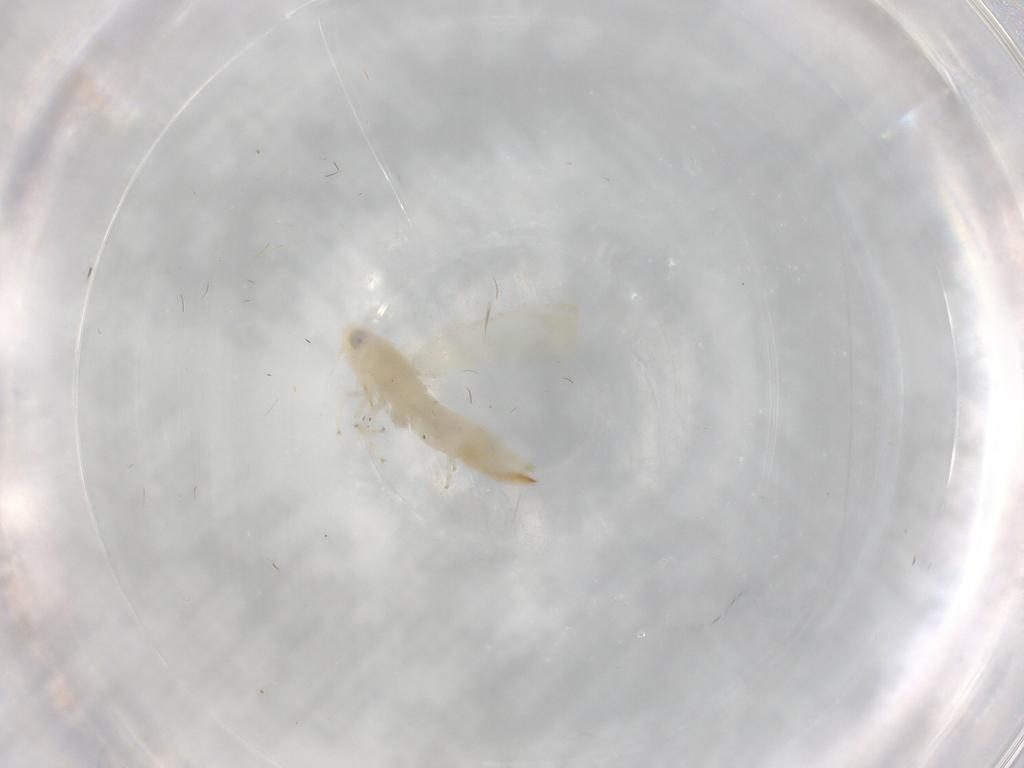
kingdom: Animalia
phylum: Arthropoda
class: Insecta
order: Hemiptera
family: Cicadellidae
